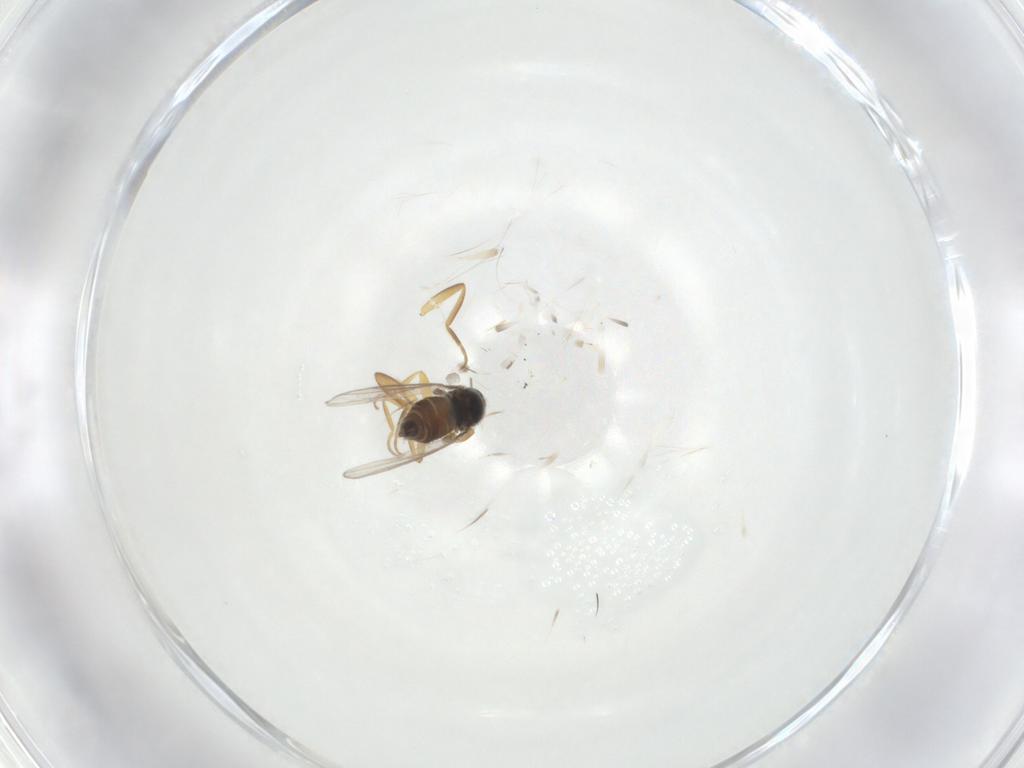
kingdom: Animalia
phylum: Arthropoda
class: Insecta
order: Diptera
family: Hybotidae
